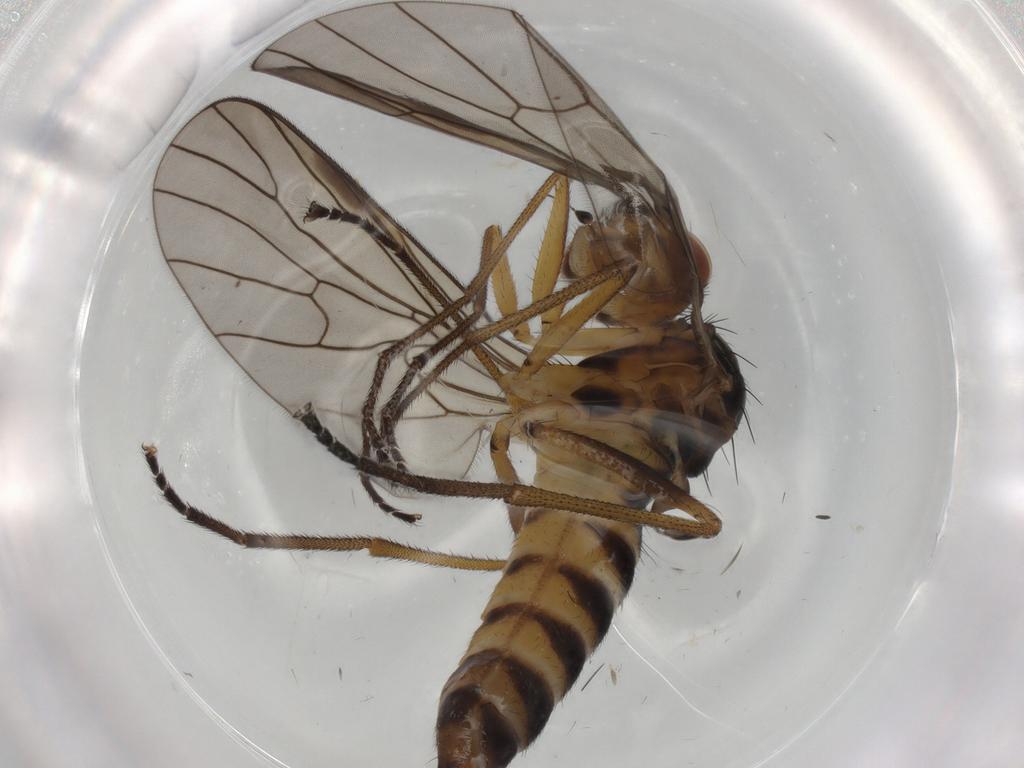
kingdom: Animalia
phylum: Arthropoda
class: Insecta
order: Diptera
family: Brachystomatidae
